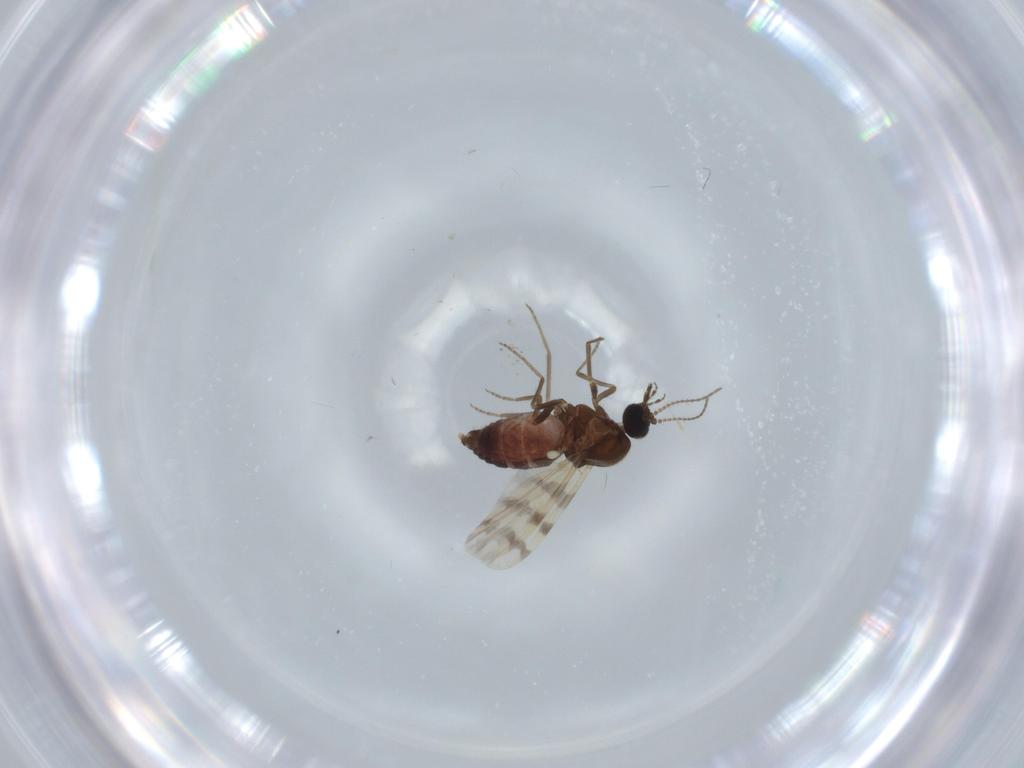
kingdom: Animalia
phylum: Arthropoda
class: Insecta
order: Diptera
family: Ceratopogonidae
